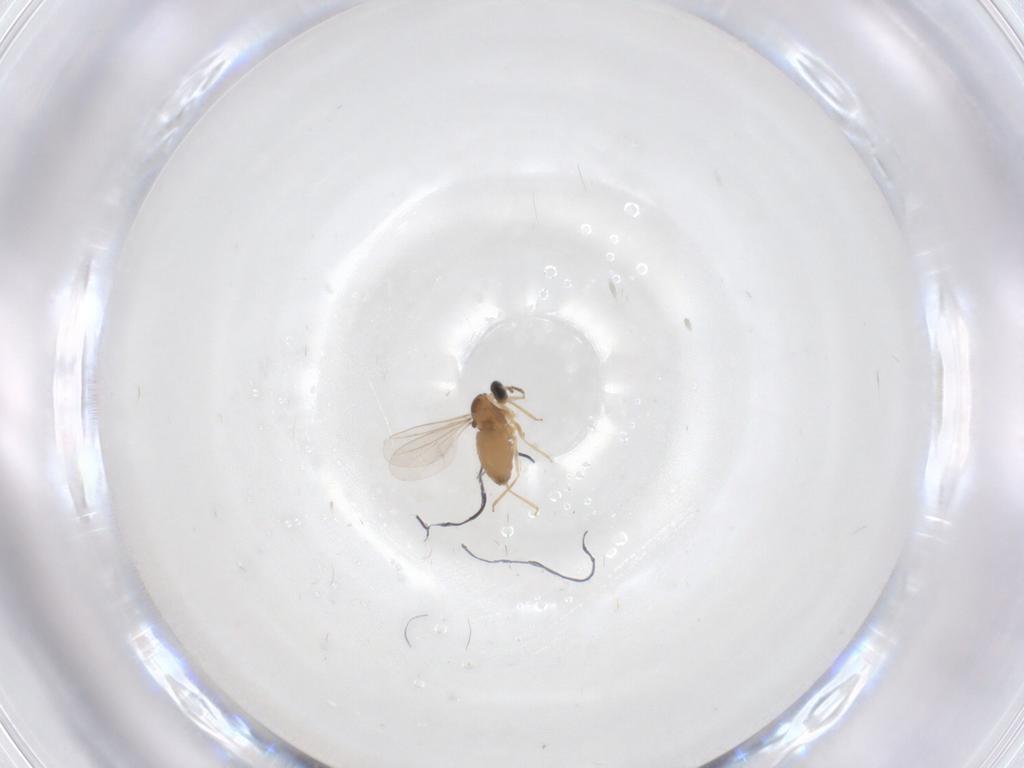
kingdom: Animalia
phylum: Arthropoda
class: Insecta
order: Diptera
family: Cecidomyiidae
